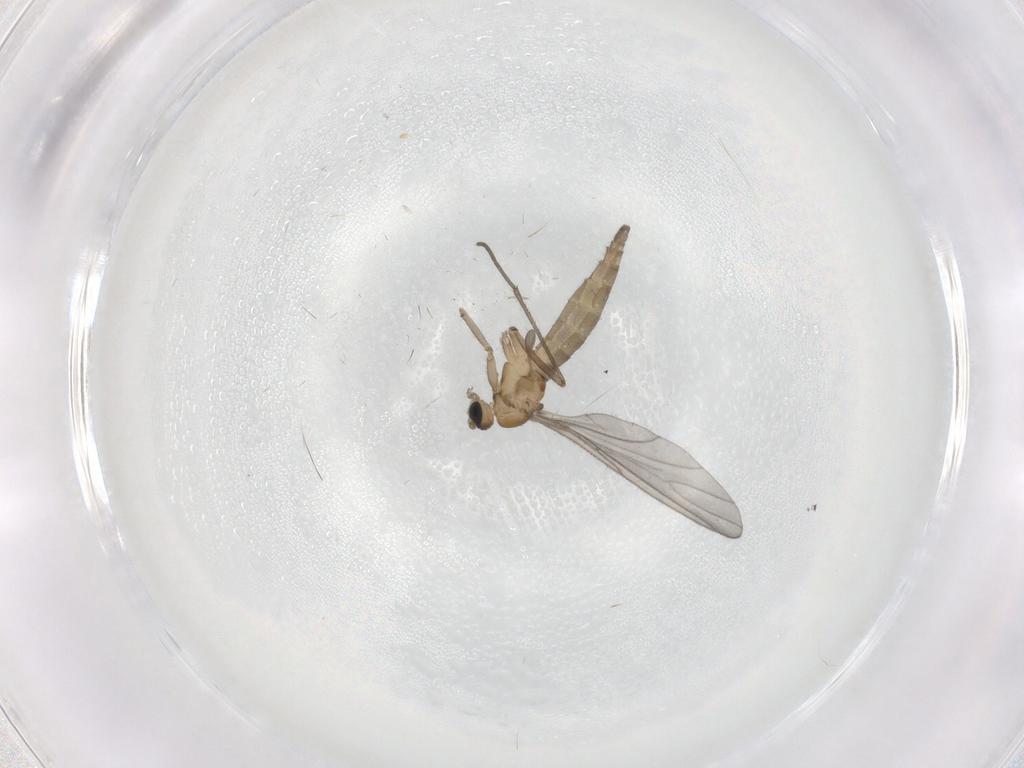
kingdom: Animalia
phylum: Arthropoda
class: Insecta
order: Diptera
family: Sciaridae
